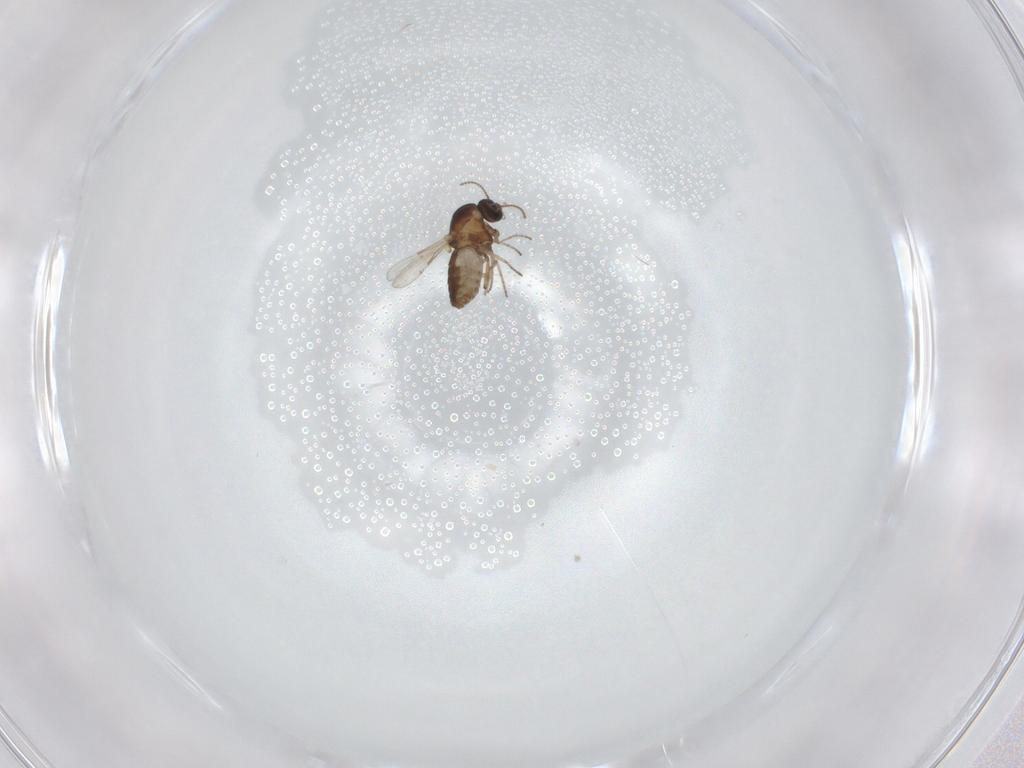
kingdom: Animalia
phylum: Arthropoda
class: Insecta
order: Diptera
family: Ceratopogonidae
